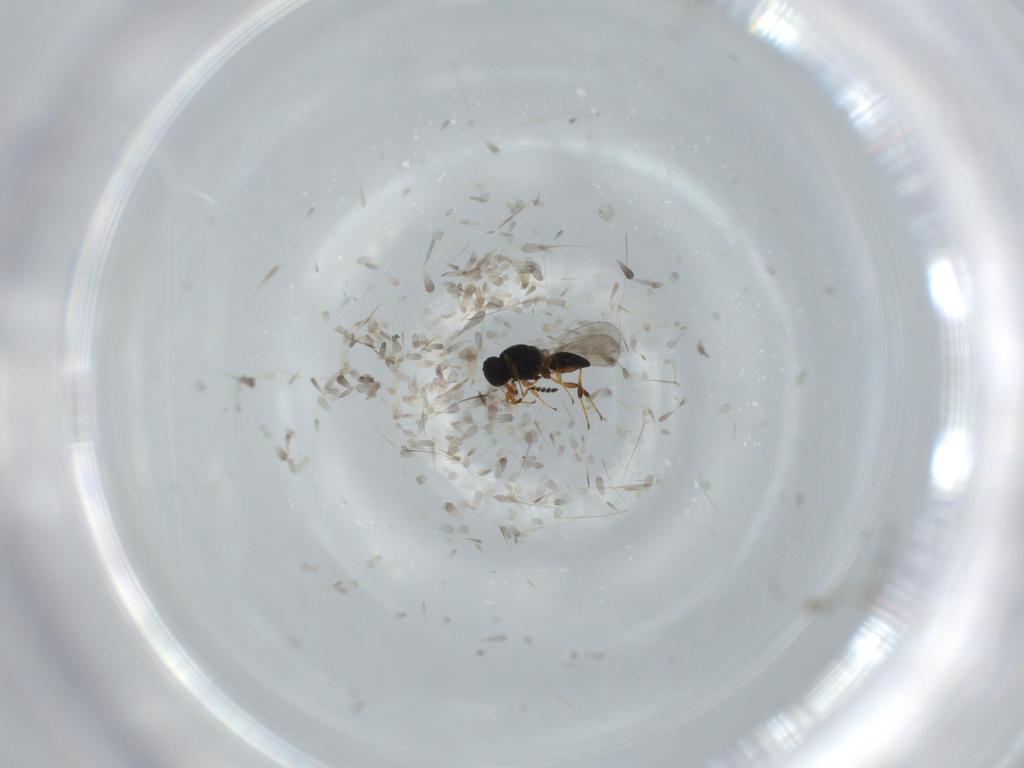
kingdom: Animalia
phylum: Arthropoda
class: Insecta
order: Hymenoptera
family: Platygastridae
